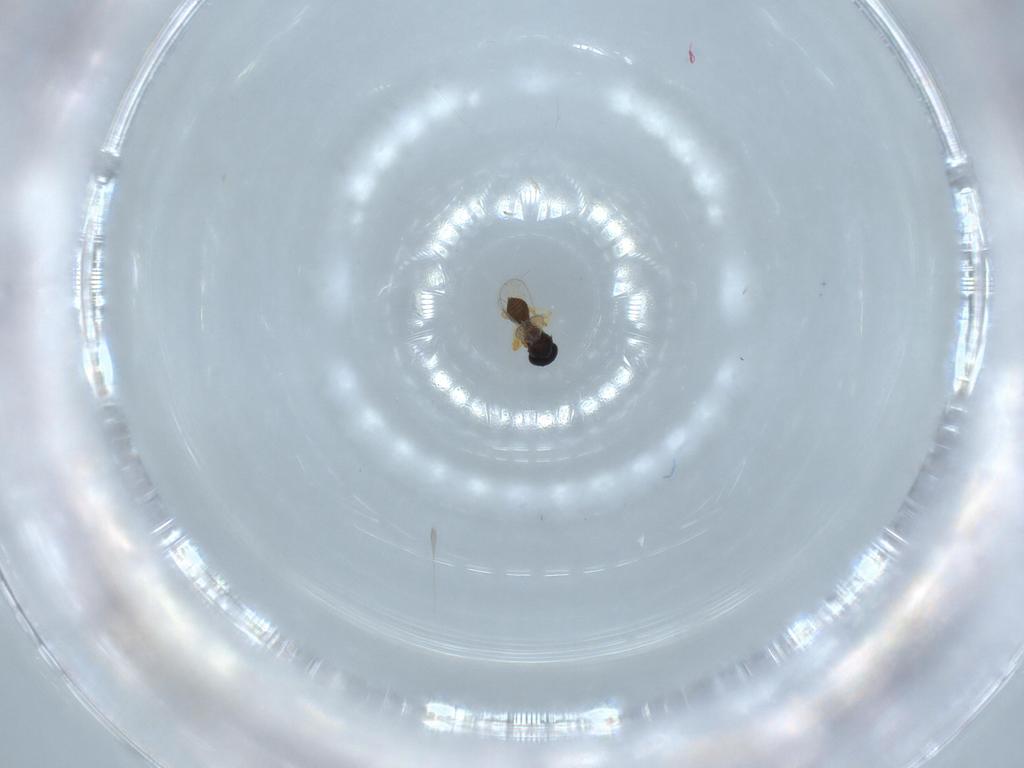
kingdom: Animalia
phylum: Arthropoda
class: Insecta
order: Hymenoptera
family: Platygastridae
